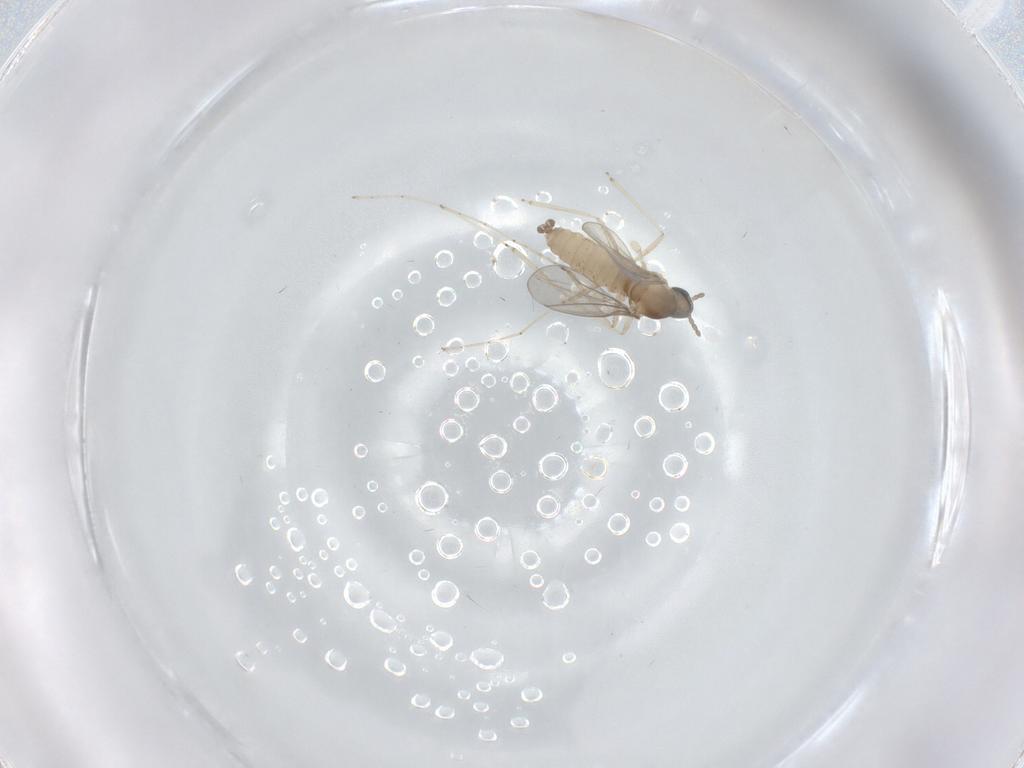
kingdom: Animalia
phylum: Arthropoda
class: Insecta
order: Diptera
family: Cecidomyiidae
